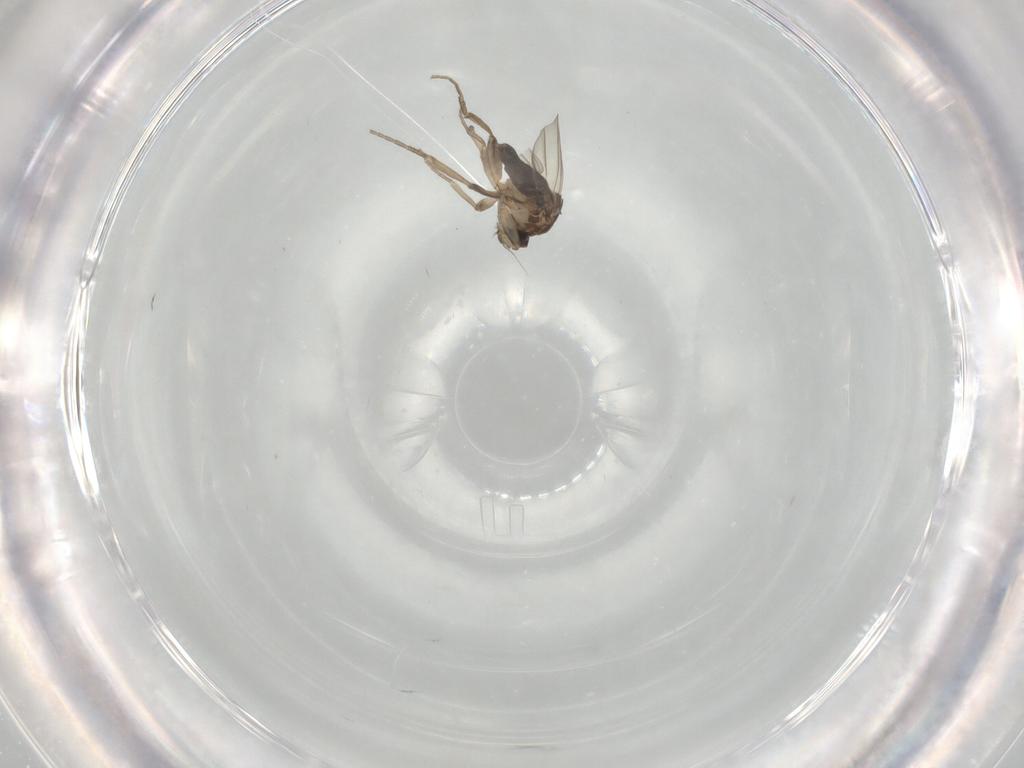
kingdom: Animalia
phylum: Arthropoda
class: Insecta
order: Diptera
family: Phoridae
